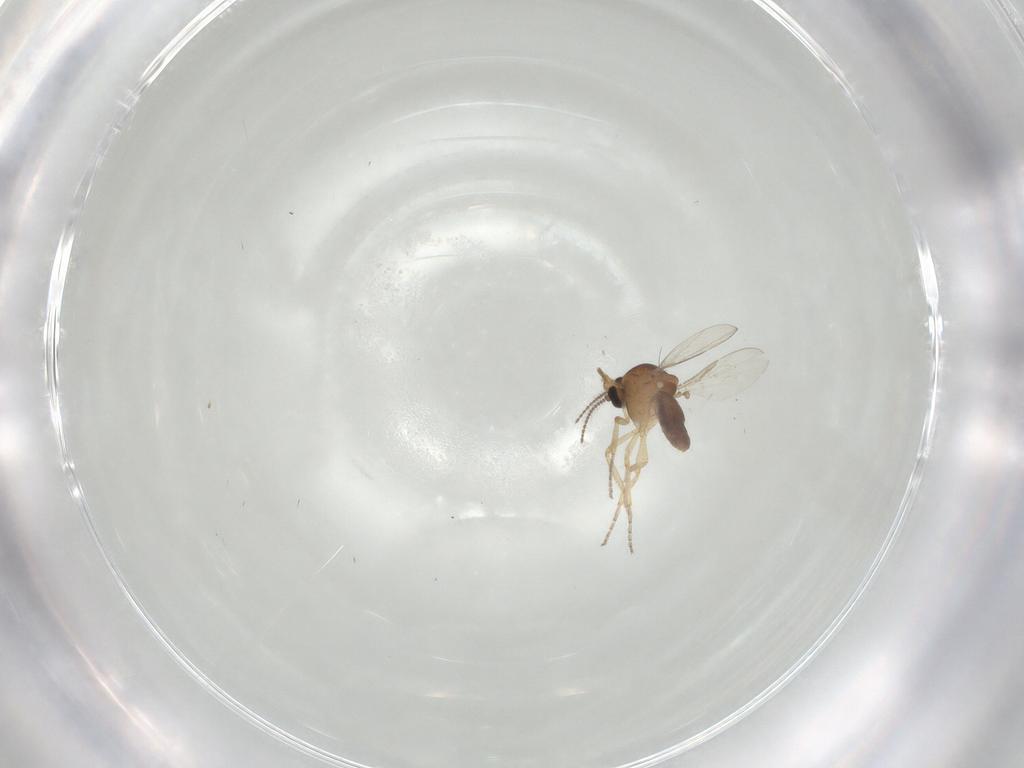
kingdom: Animalia
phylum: Arthropoda
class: Insecta
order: Diptera
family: Ceratopogonidae
